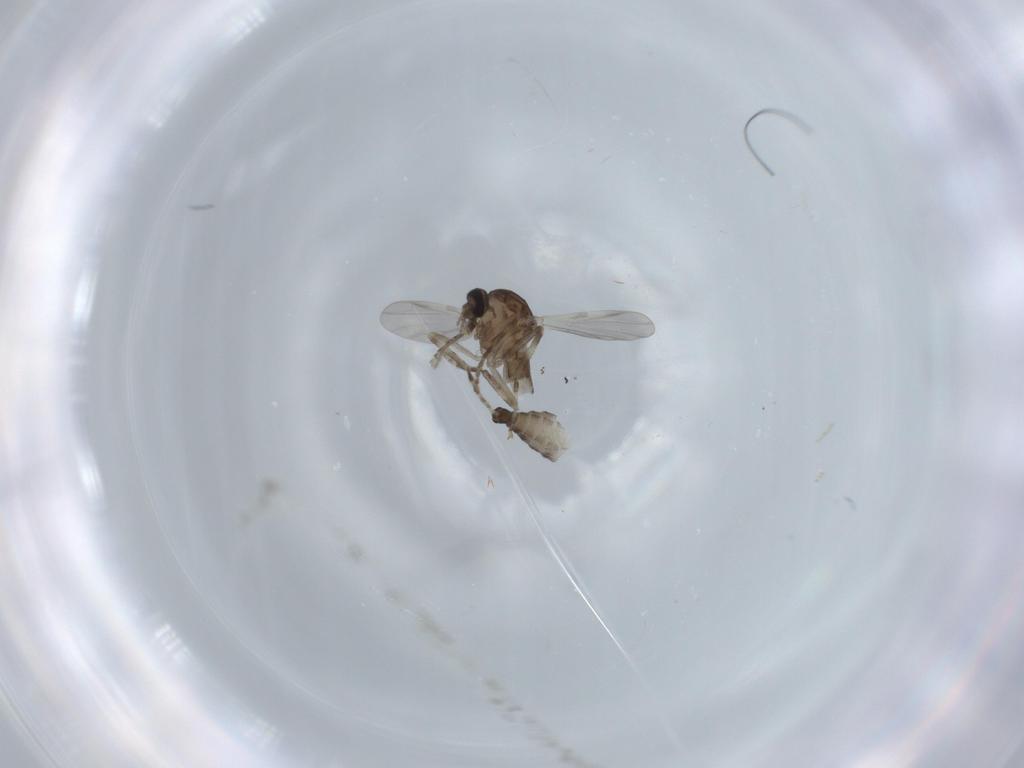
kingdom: Animalia
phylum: Arthropoda
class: Insecta
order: Diptera
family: Ceratopogonidae
